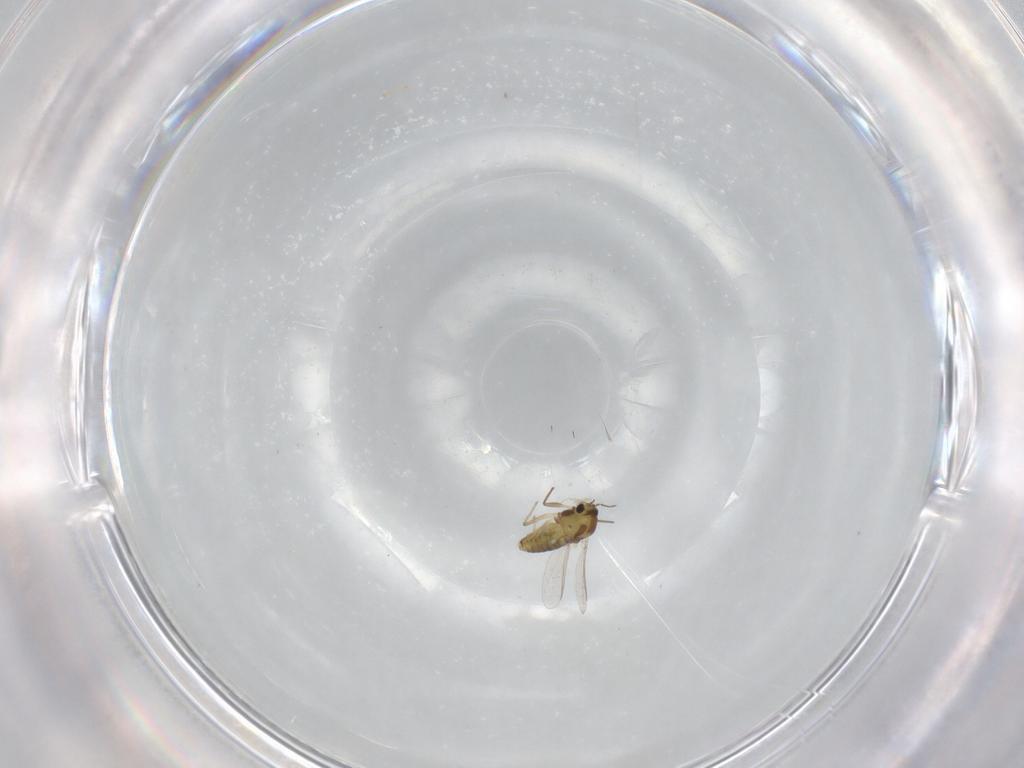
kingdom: Animalia
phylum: Arthropoda
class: Insecta
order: Diptera
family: Chironomidae
